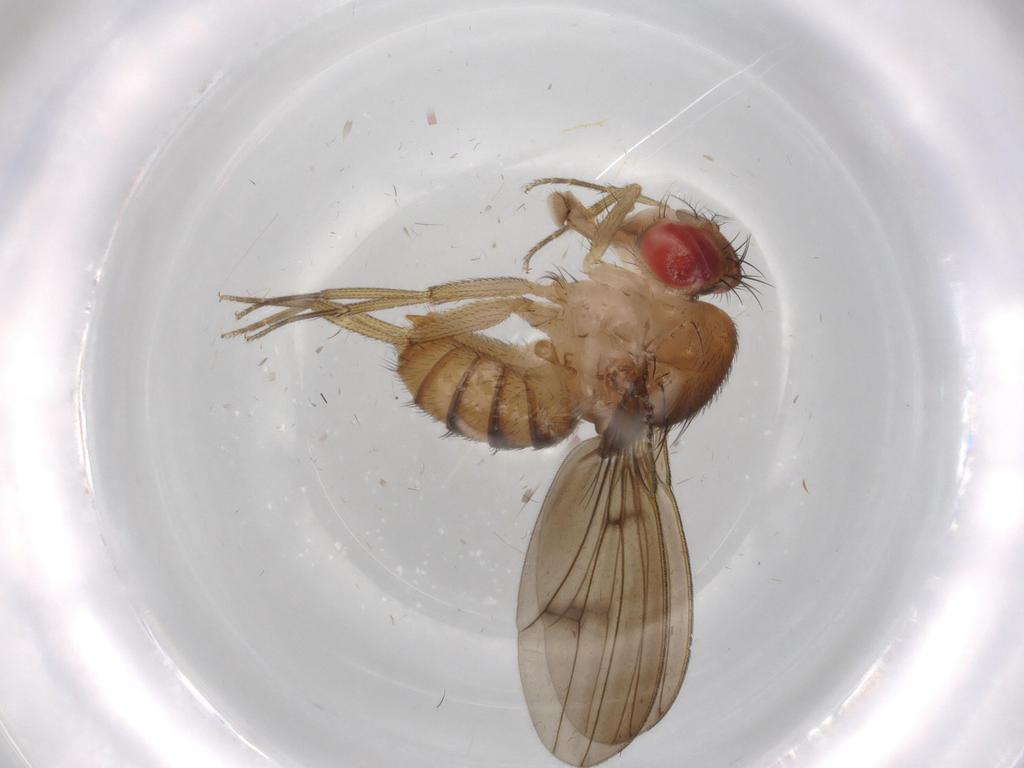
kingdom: Animalia
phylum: Arthropoda
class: Insecta
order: Diptera
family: Drosophilidae
